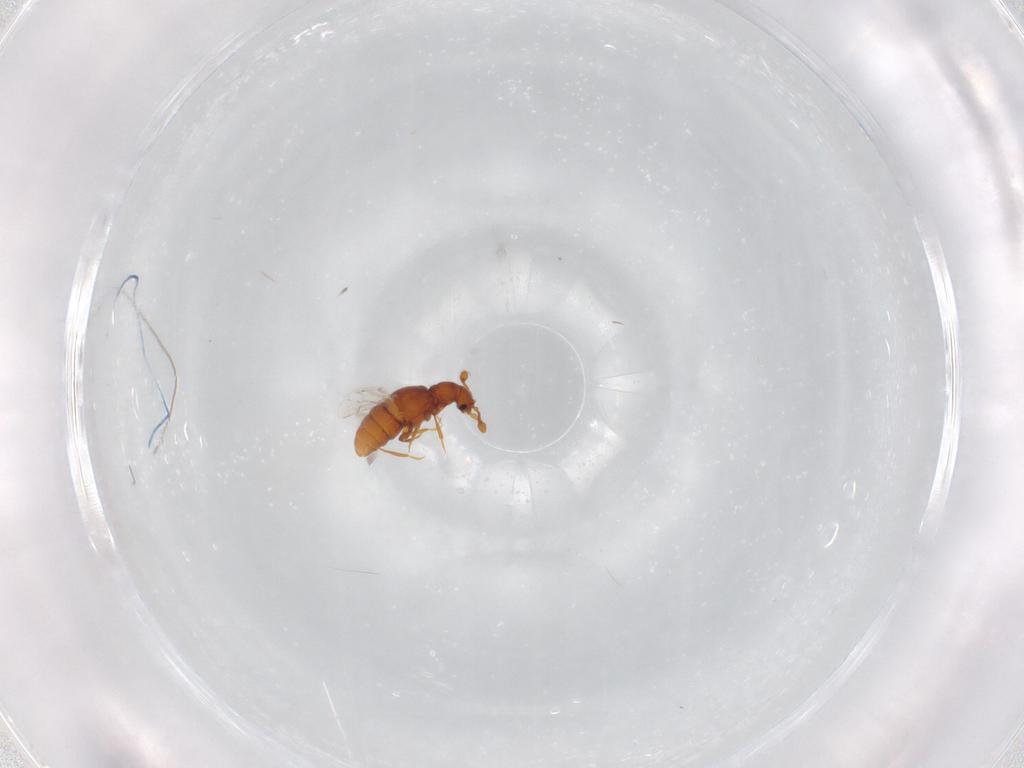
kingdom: Animalia
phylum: Arthropoda
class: Insecta
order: Coleoptera
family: Staphylinidae
